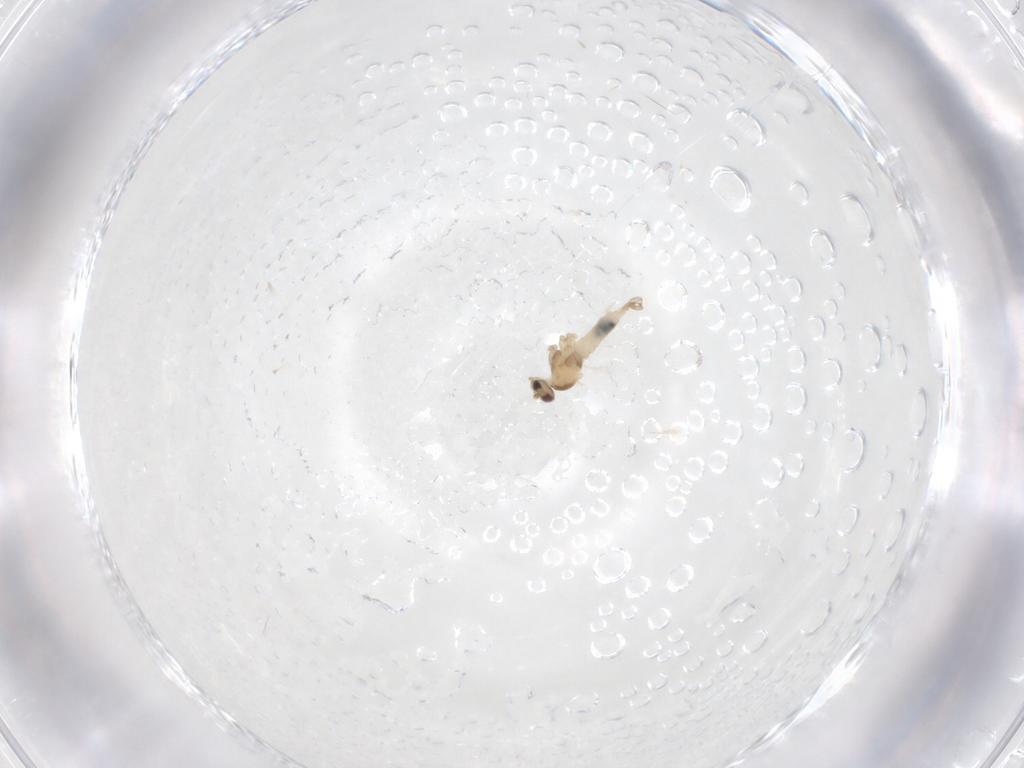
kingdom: Animalia
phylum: Arthropoda
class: Insecta
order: Diptera
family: Cecidomyiidae
